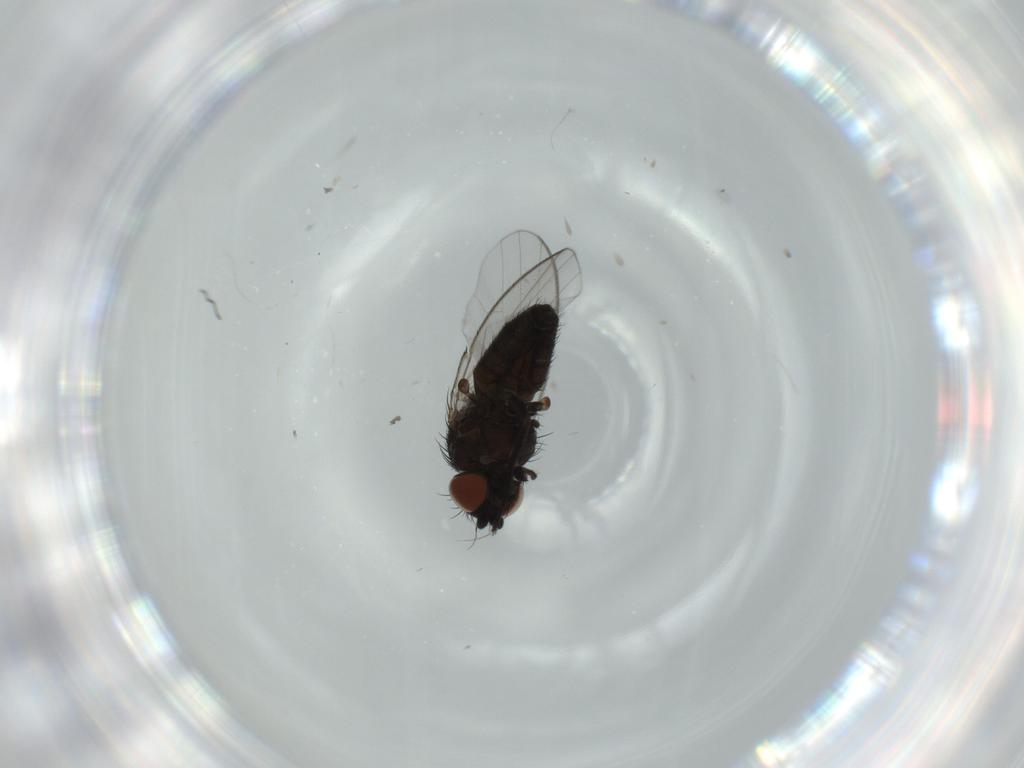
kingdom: Animalia
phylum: Arthropoda
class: Insecta
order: Diptera
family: Milichiidae
